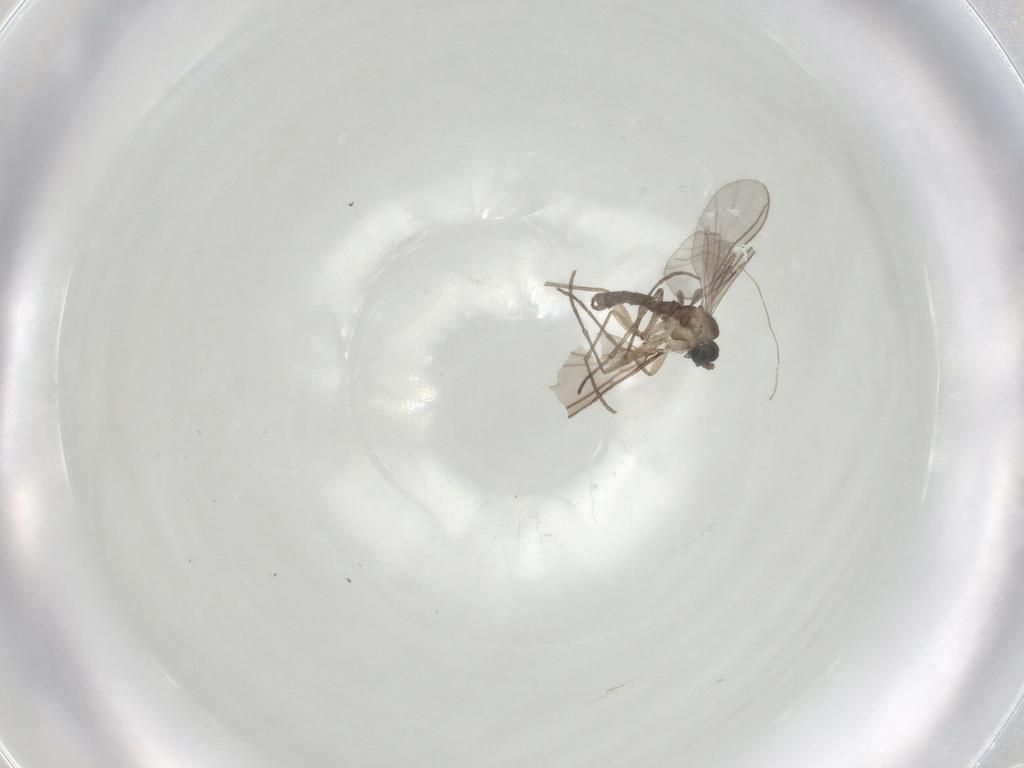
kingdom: Animalia
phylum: Arthropoda
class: Insecta
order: Diptera
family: Sciaridae
